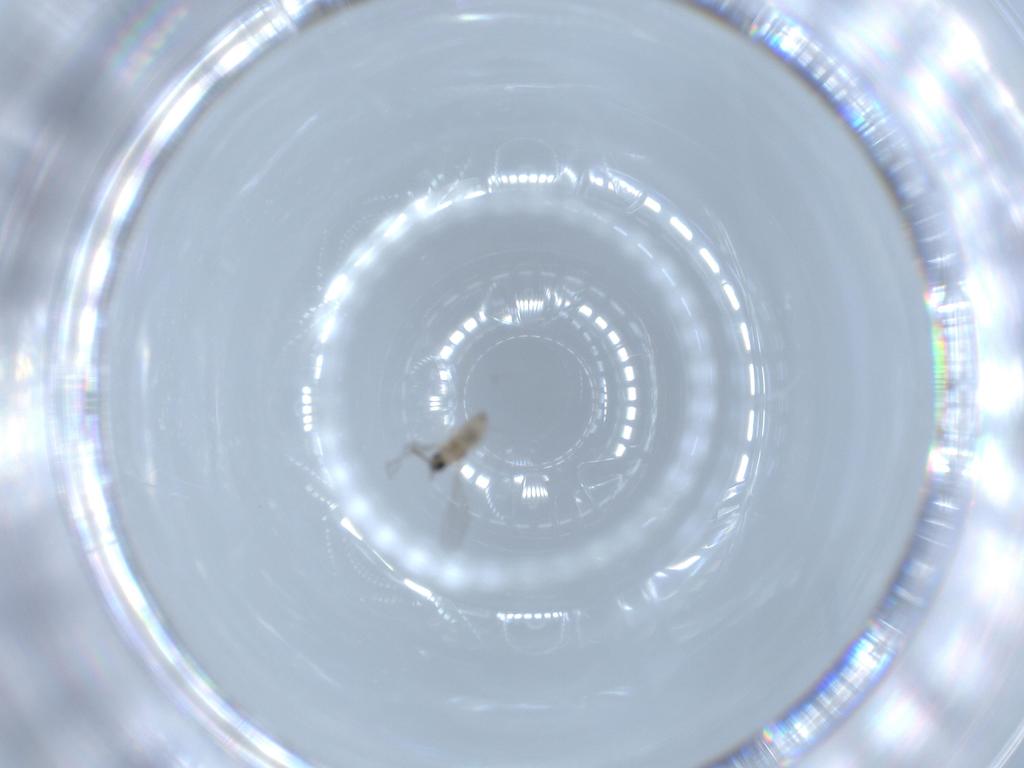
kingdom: Animalia
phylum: Arthropoda
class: Insecta
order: Diptera
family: Cecidomyiidae
